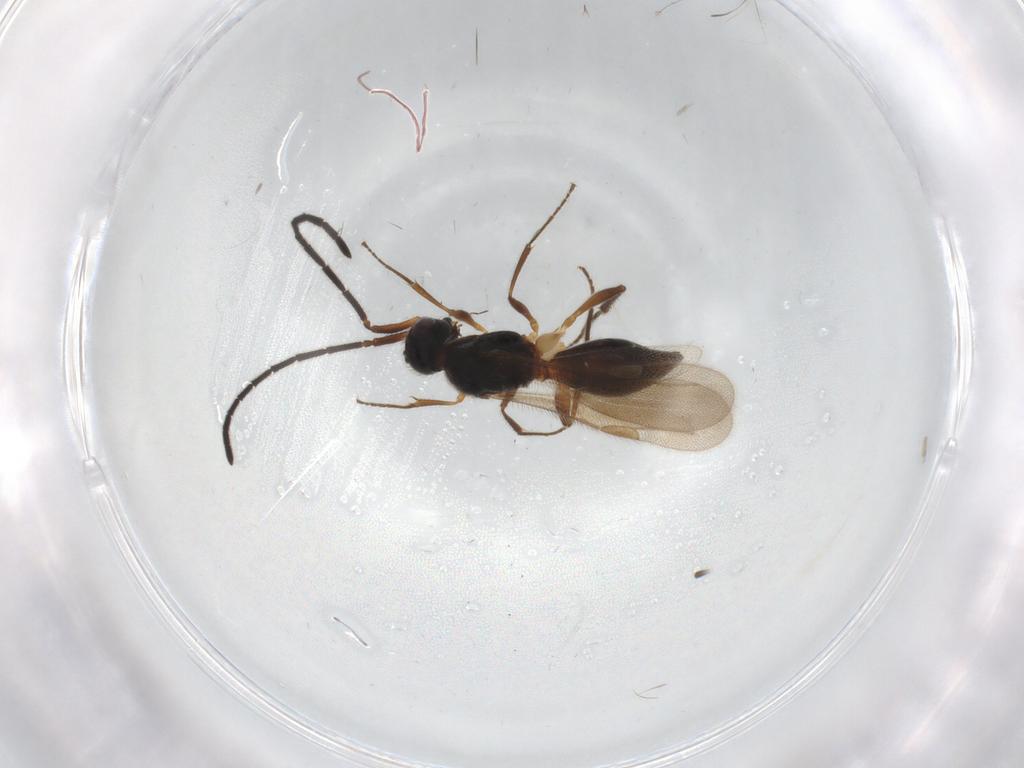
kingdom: Animalia
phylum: Arthropoda
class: Insecta
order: Hymenoptera
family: Megaspilidae
